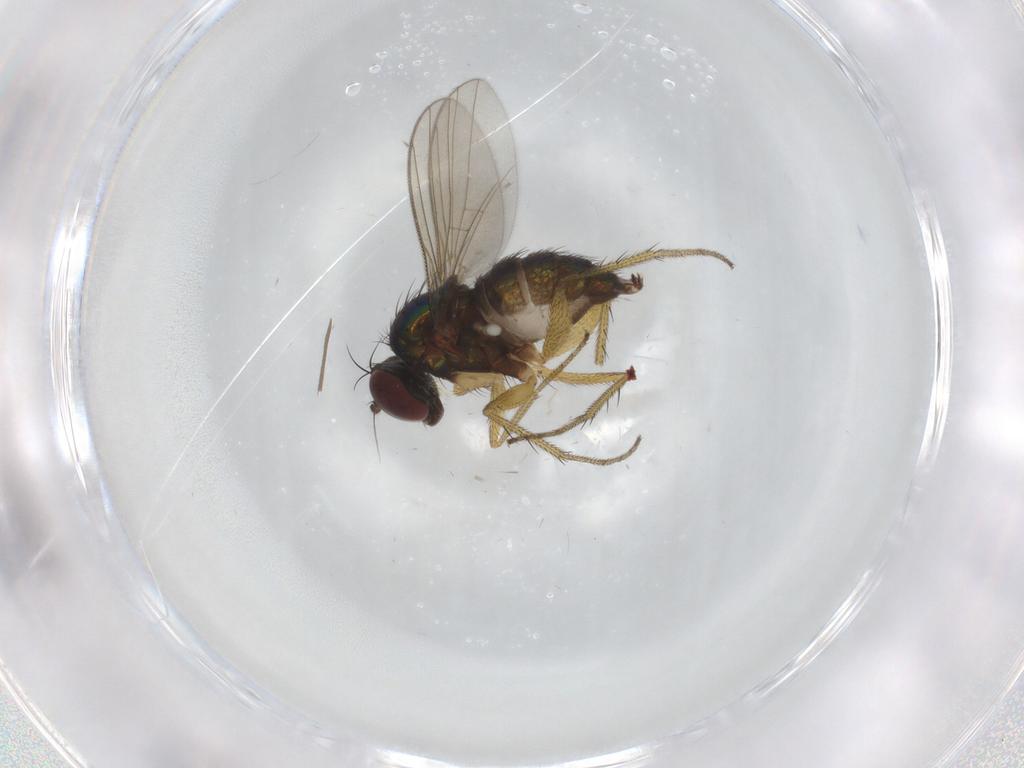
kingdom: Animalia
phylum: Arthropoda
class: Insecta
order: Diptera
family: Dolichopodidae
